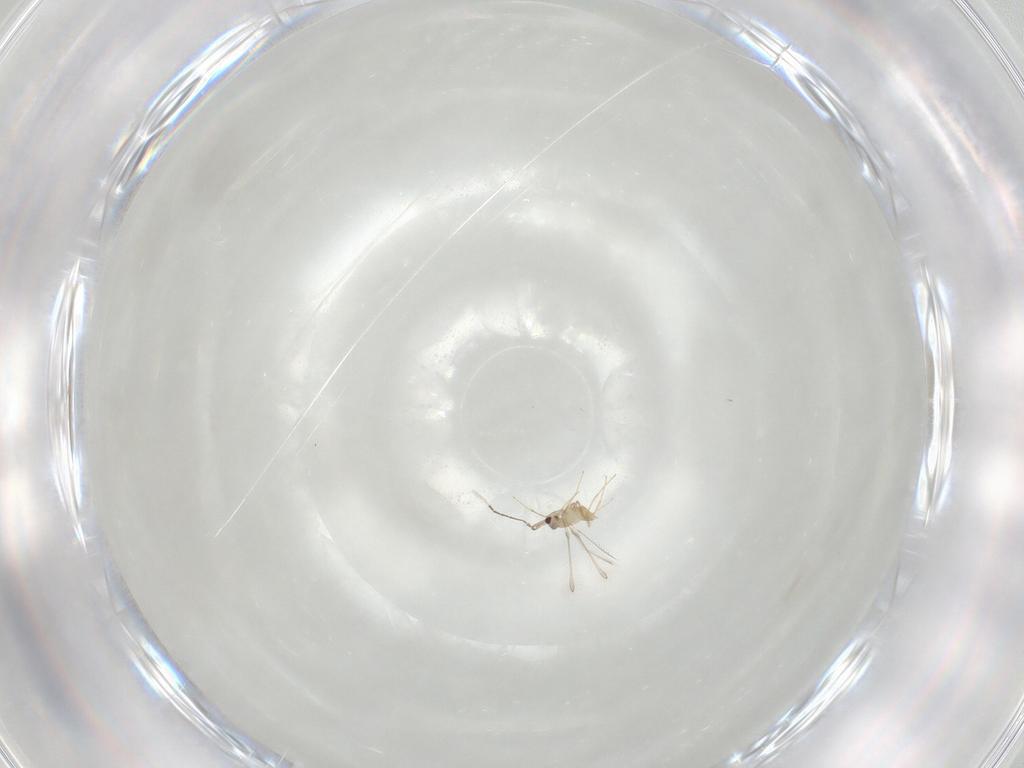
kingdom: Animalia
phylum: Arthropoda
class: Insecta
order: Hymenoptera
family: Mymaridae
